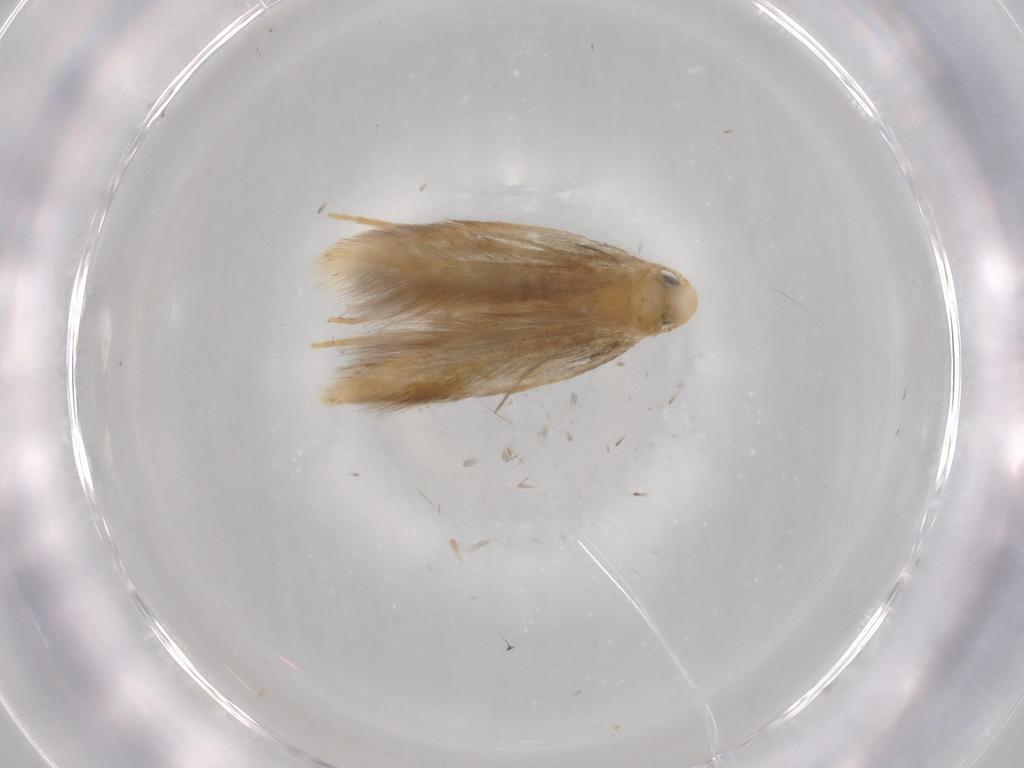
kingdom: Animalia
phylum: Arthropoda
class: Insecta
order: Lepidoptera
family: Tischeriidae
